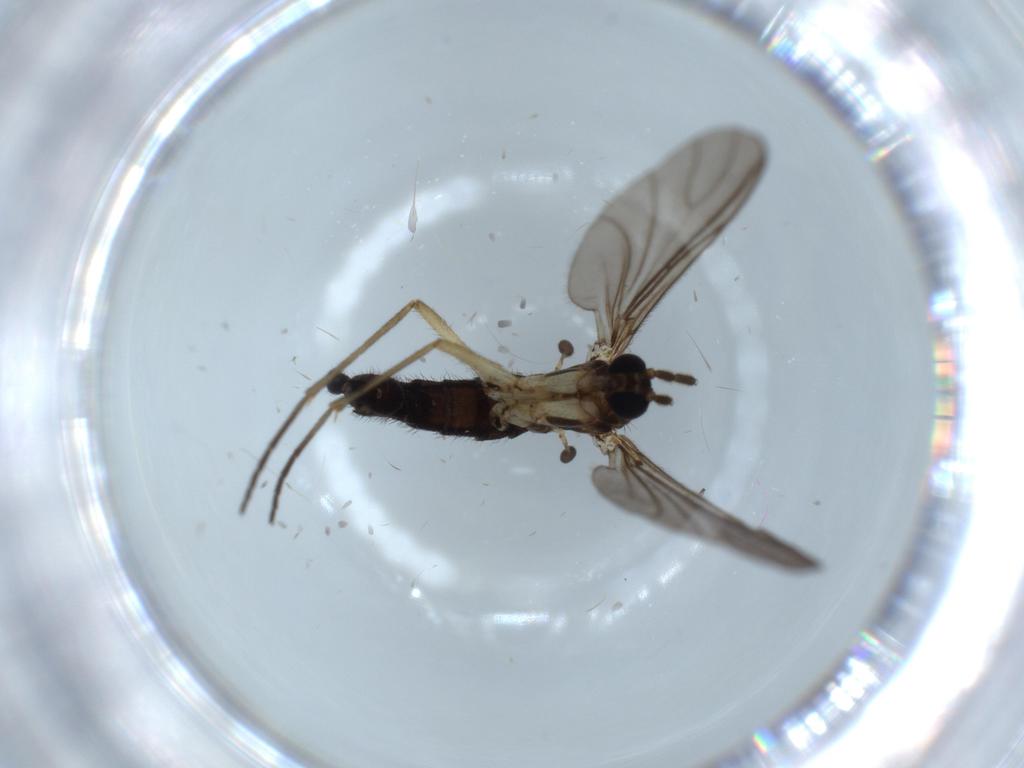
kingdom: Animalia
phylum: Arthropoda
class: Insecta
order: Diptera
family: Sciaridae
